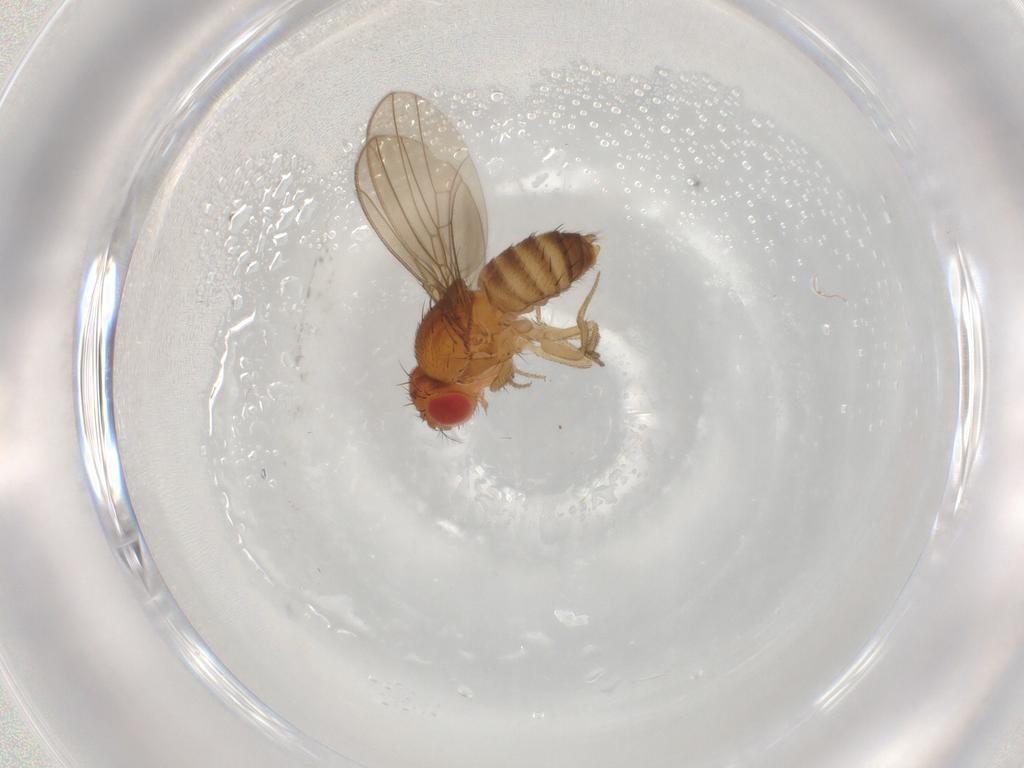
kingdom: Animalia
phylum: Arthropoda
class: Insecta
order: Diptera
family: Drosophilidae
